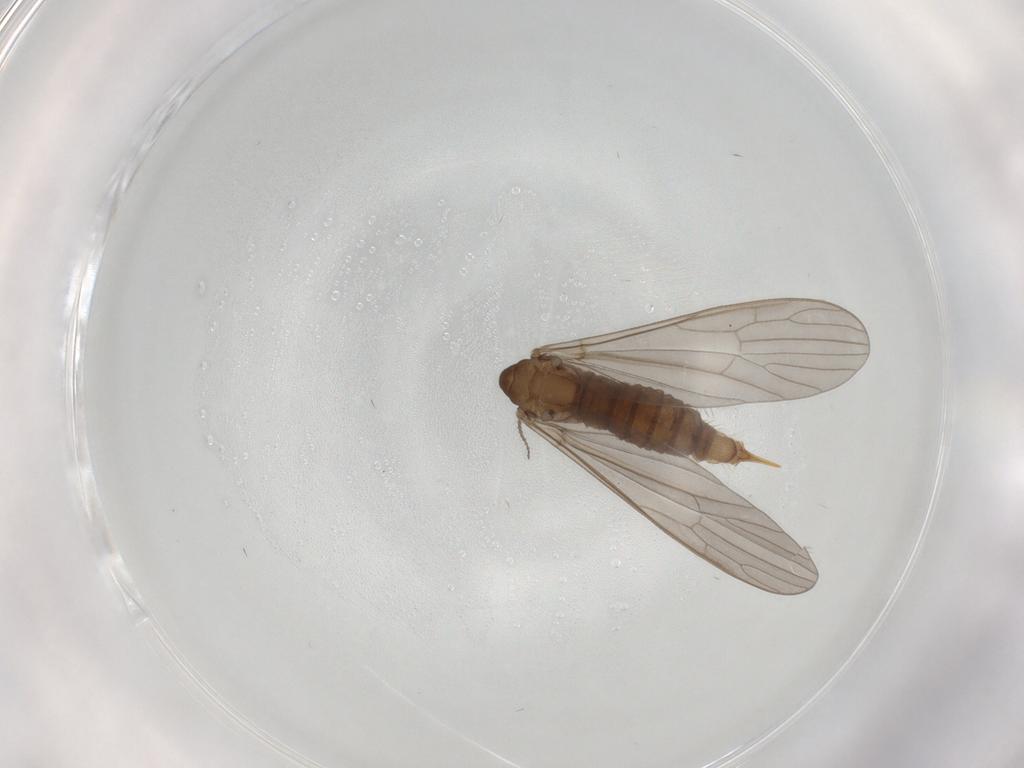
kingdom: Animalia
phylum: Arthropoda
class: Insecta
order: Diptera
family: Limoniidae
